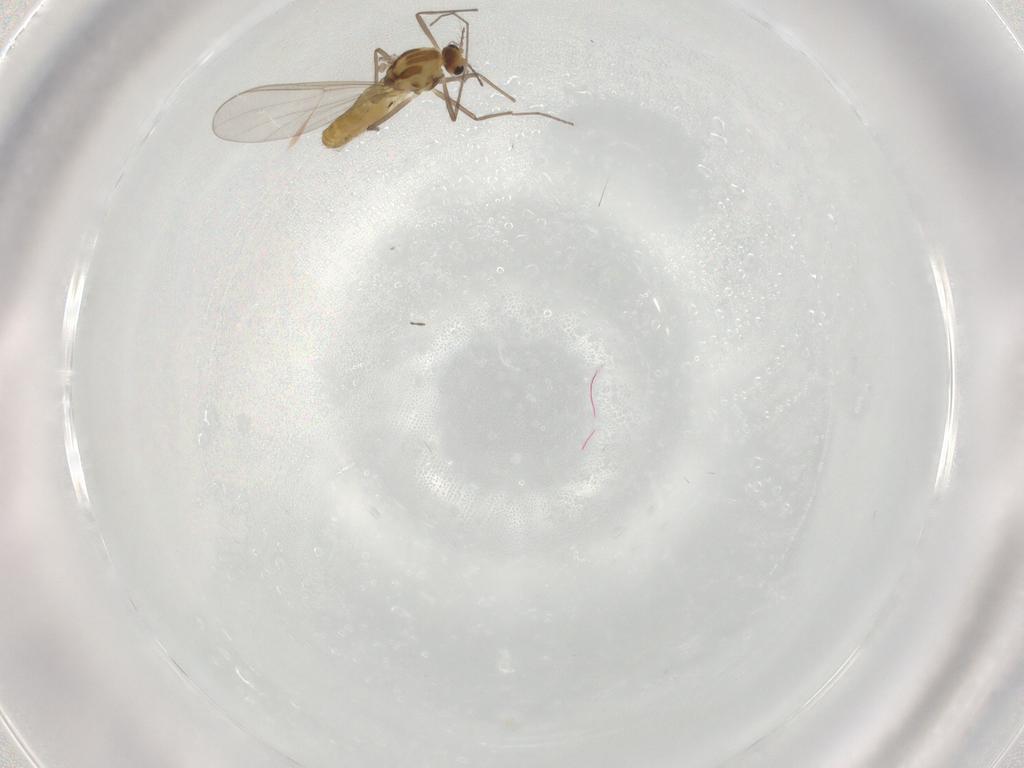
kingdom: Animalia
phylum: Arthropoda
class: Insecta
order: Diptera
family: Chironomidae
